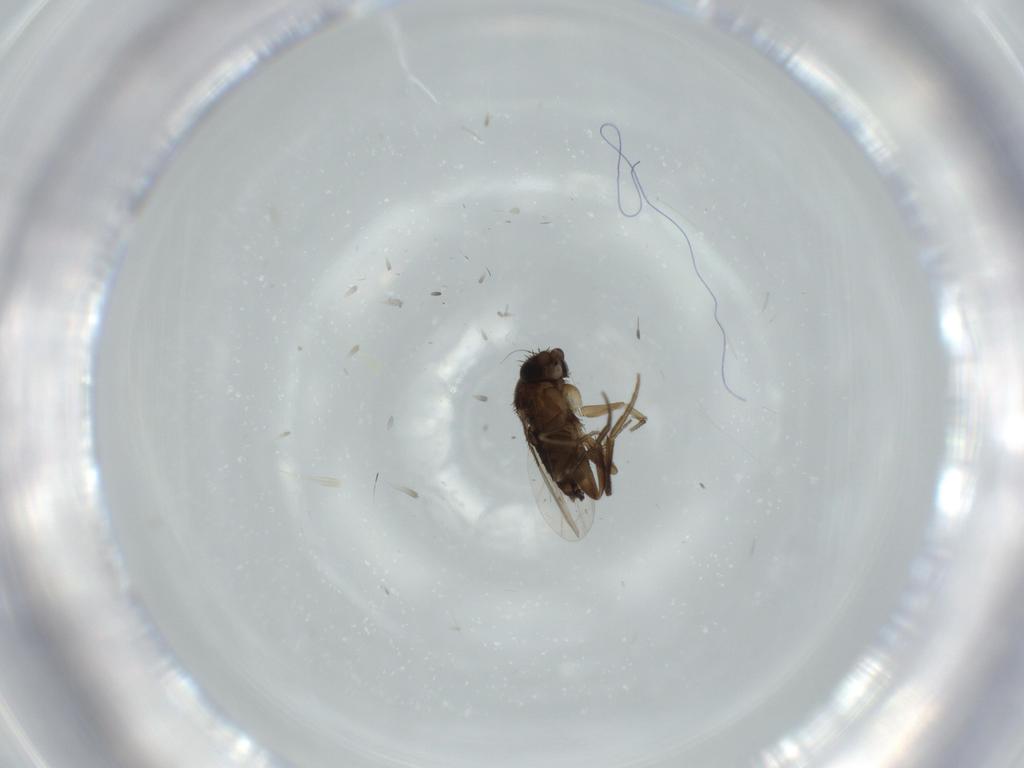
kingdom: Animalia
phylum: Arthropoda
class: Insecta
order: Diptera
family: Phoridae
